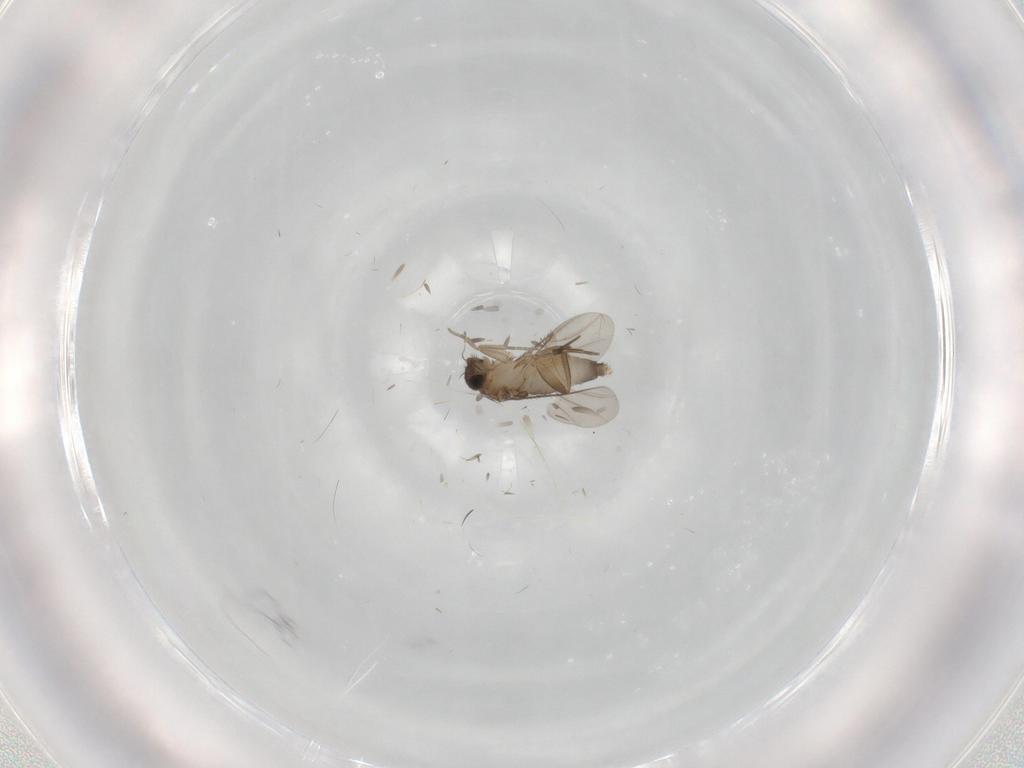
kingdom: Animalia
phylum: Arthropoda
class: Insecta
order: Diptera
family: Phoridae
